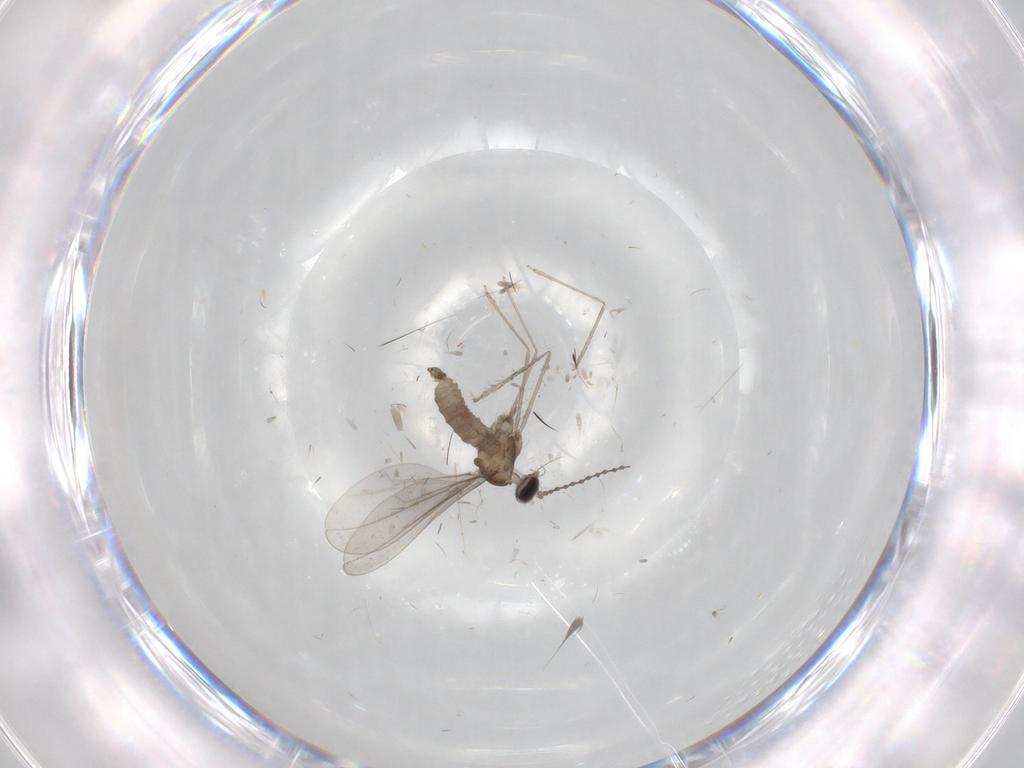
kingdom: Animalia
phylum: Arthropoda
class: Insecta
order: Diptera
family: Cecidomyiidae
